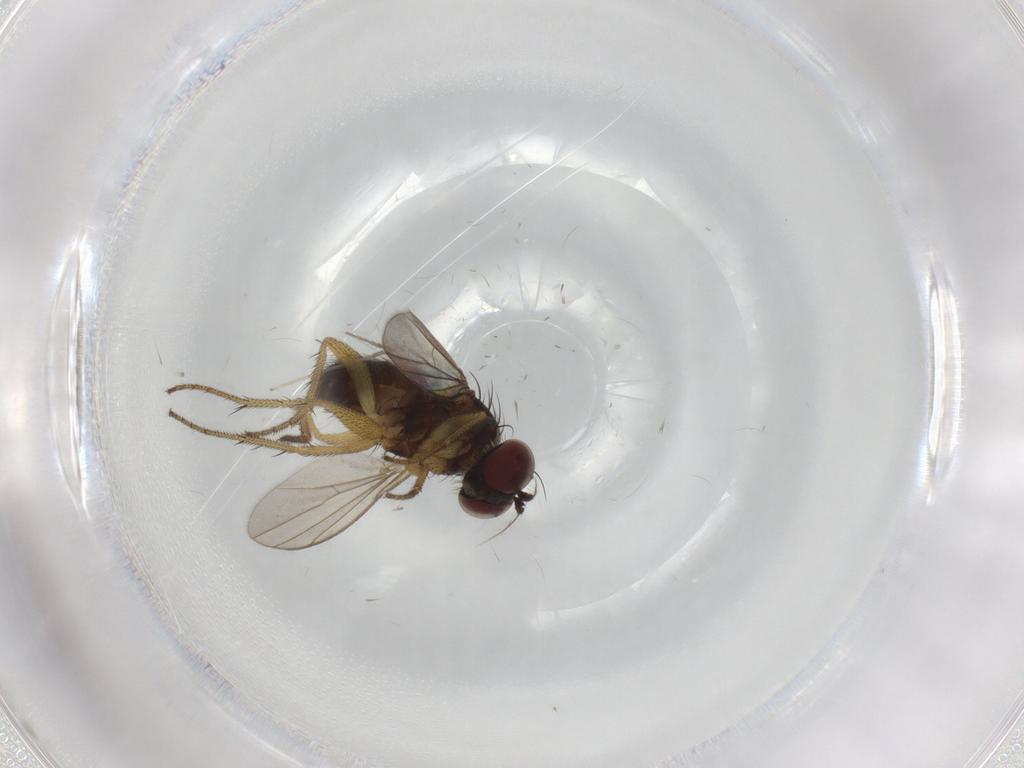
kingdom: Animalia
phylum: Arthropoda
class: Insecta
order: Diptera
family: Chironomidae
